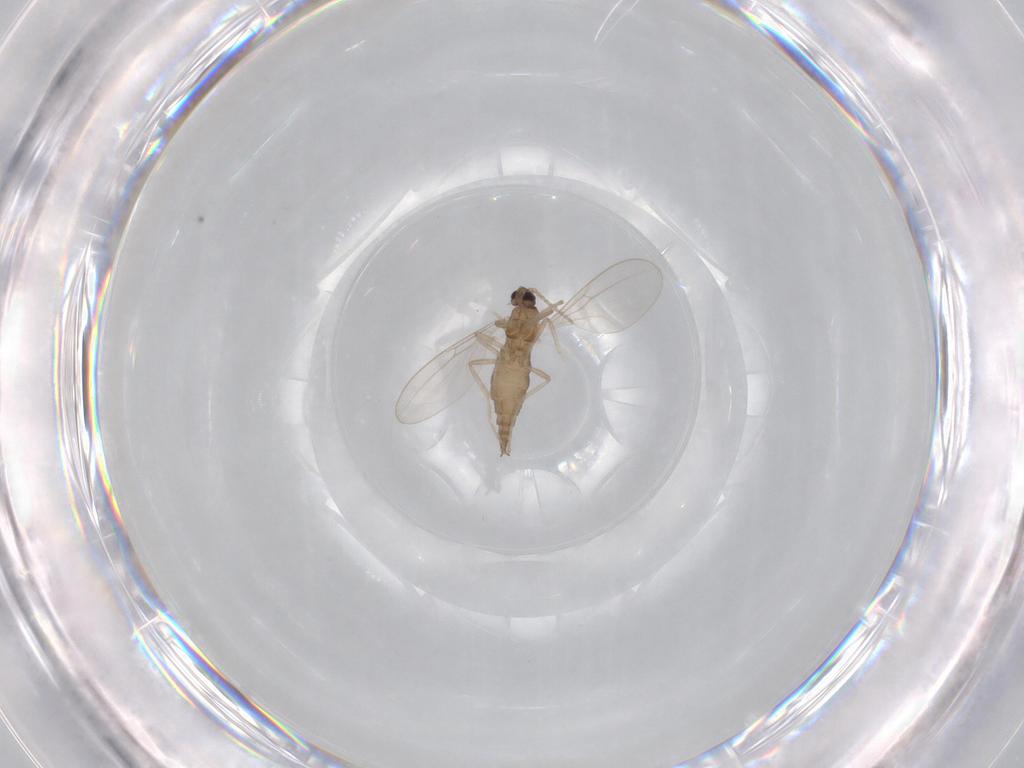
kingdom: Animalia
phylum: Arthropoda
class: Insecta
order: Diptera
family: Cecidomyiidae
